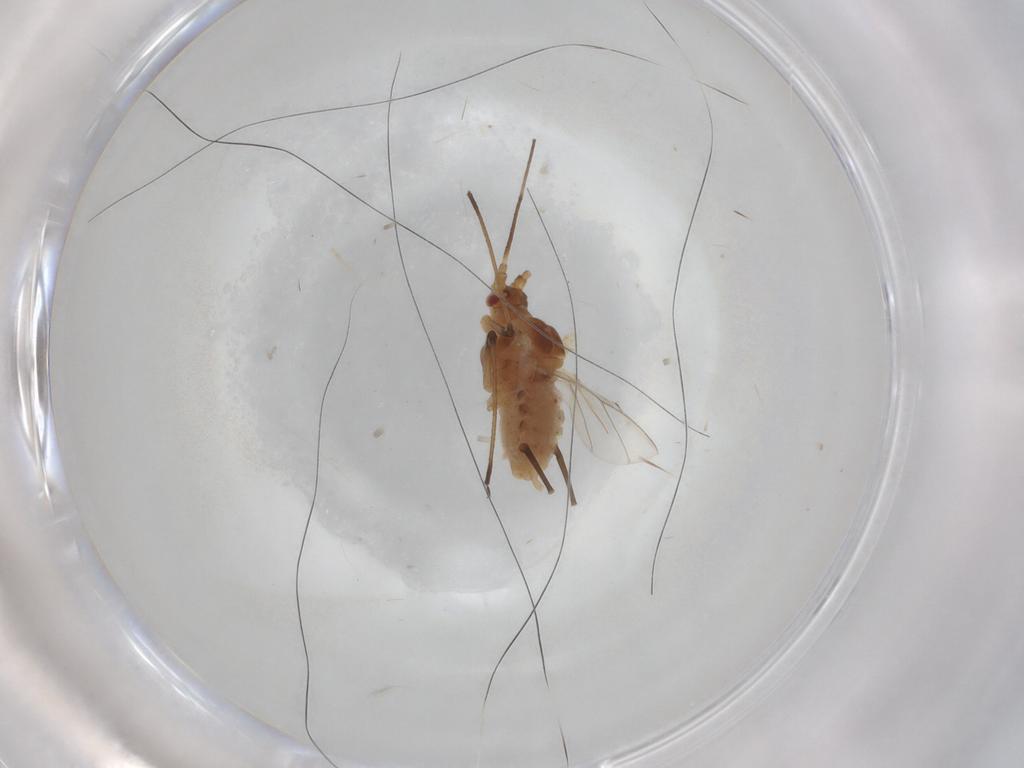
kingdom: Animalia
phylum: Arthropoda
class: Insecta
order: Hemiptera
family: Aphididae
